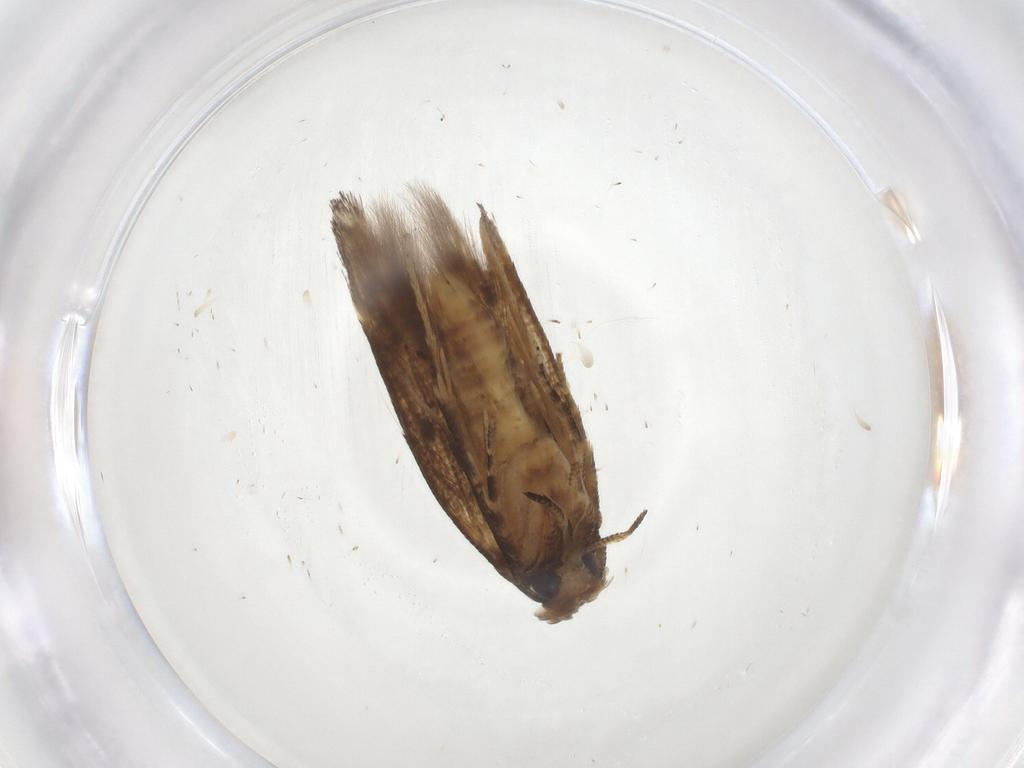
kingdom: Animalia
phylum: Arthropoda
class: Insecta
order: Lepidoptera
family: Gelechiidae
